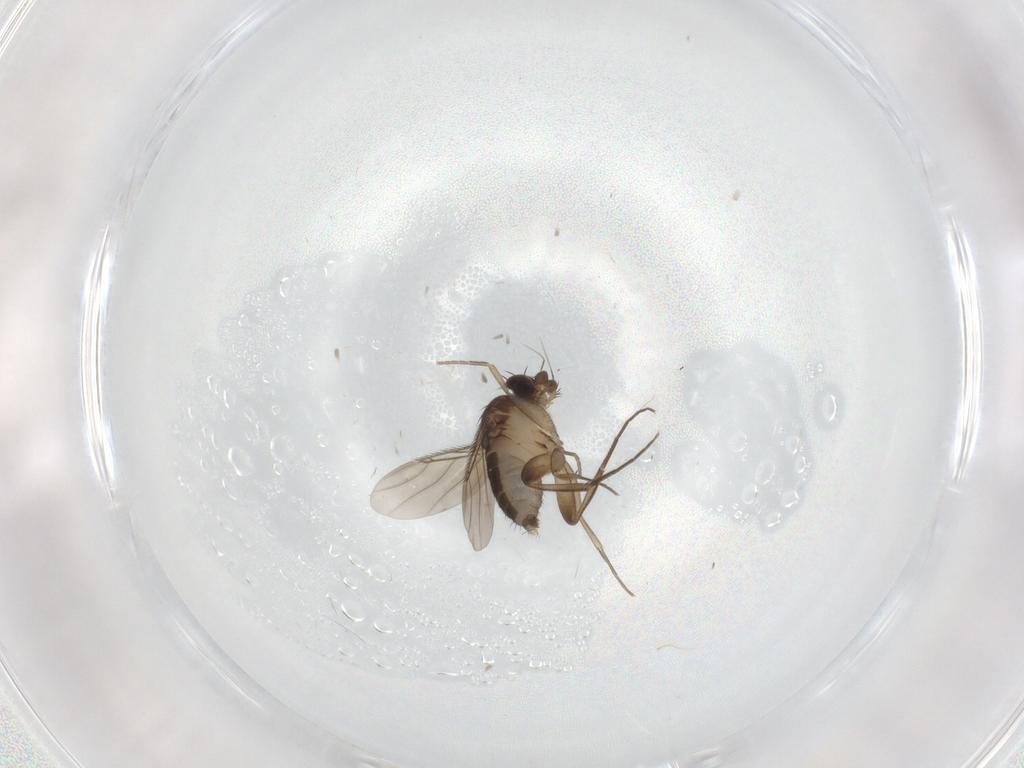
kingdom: Animalia
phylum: Arthropoda
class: Insecta
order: Diptera
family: Phoridae
